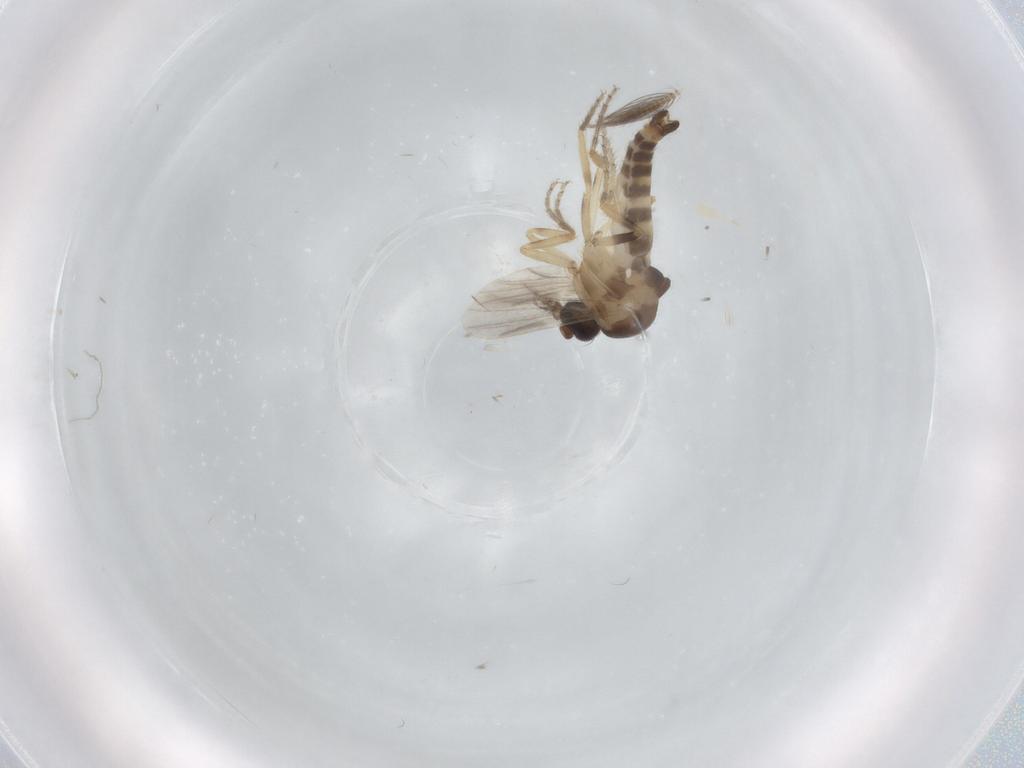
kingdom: Animalia
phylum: Arthropoda
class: Insecta
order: Diptera
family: Ceratopogonidae
